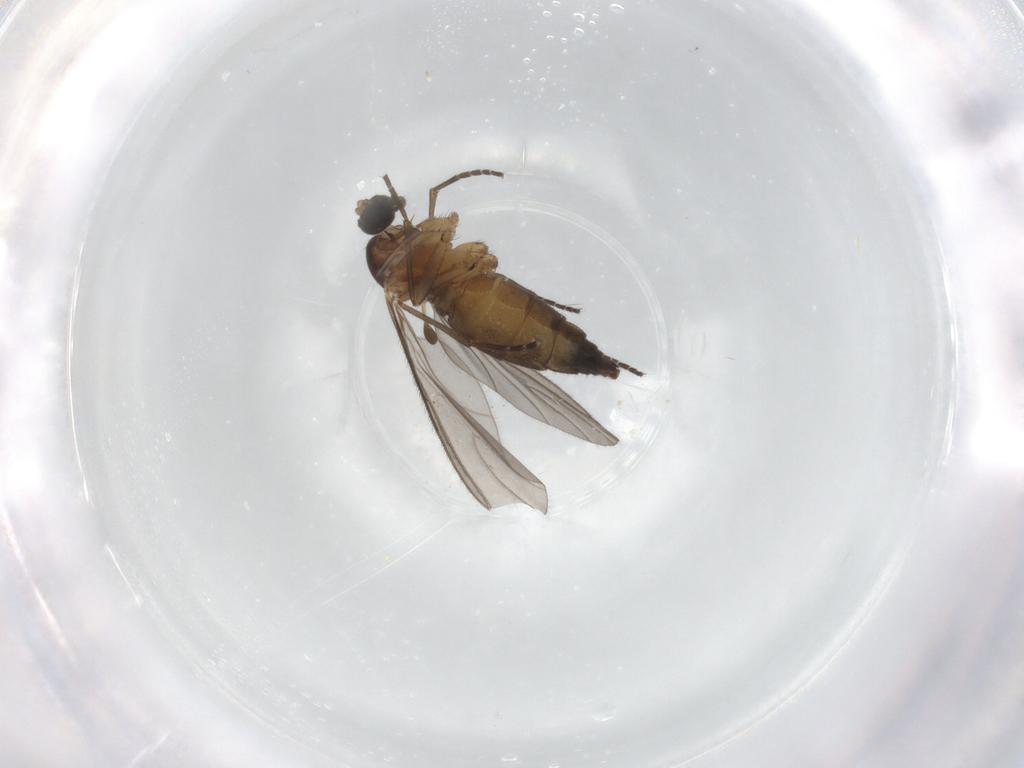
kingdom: Animalia
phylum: Arthropoda
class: Insecta
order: Diptera
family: Sciaridae
